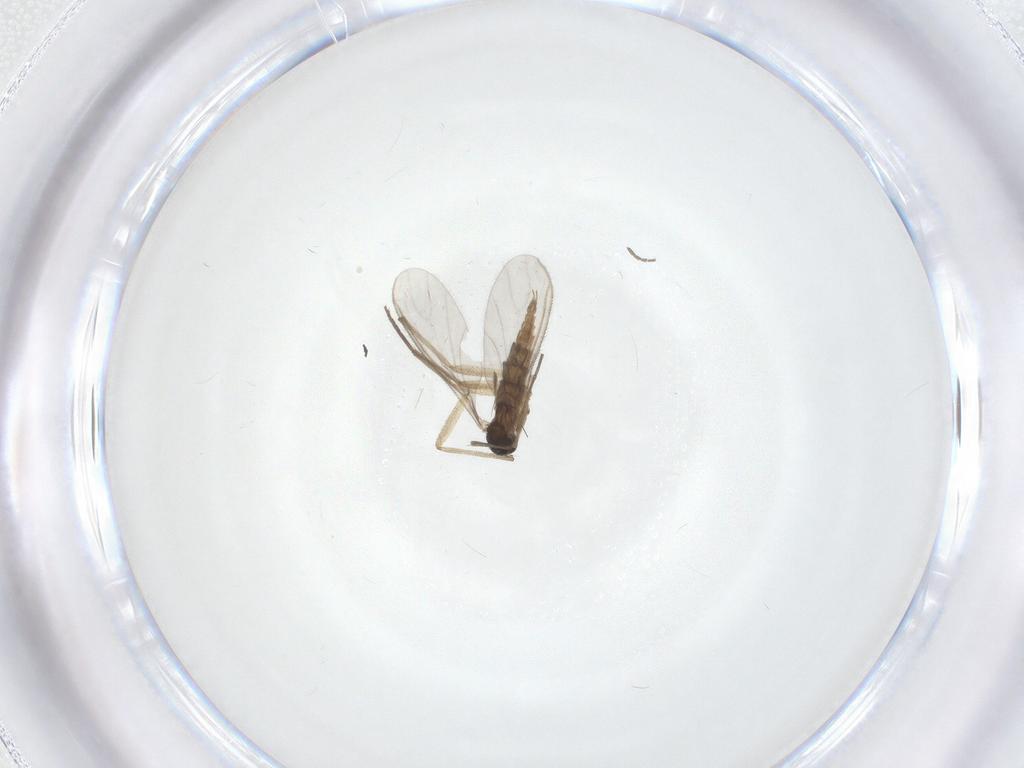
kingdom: Animalia
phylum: Arthropoda
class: Insecta
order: Diptera
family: Sciaridae
